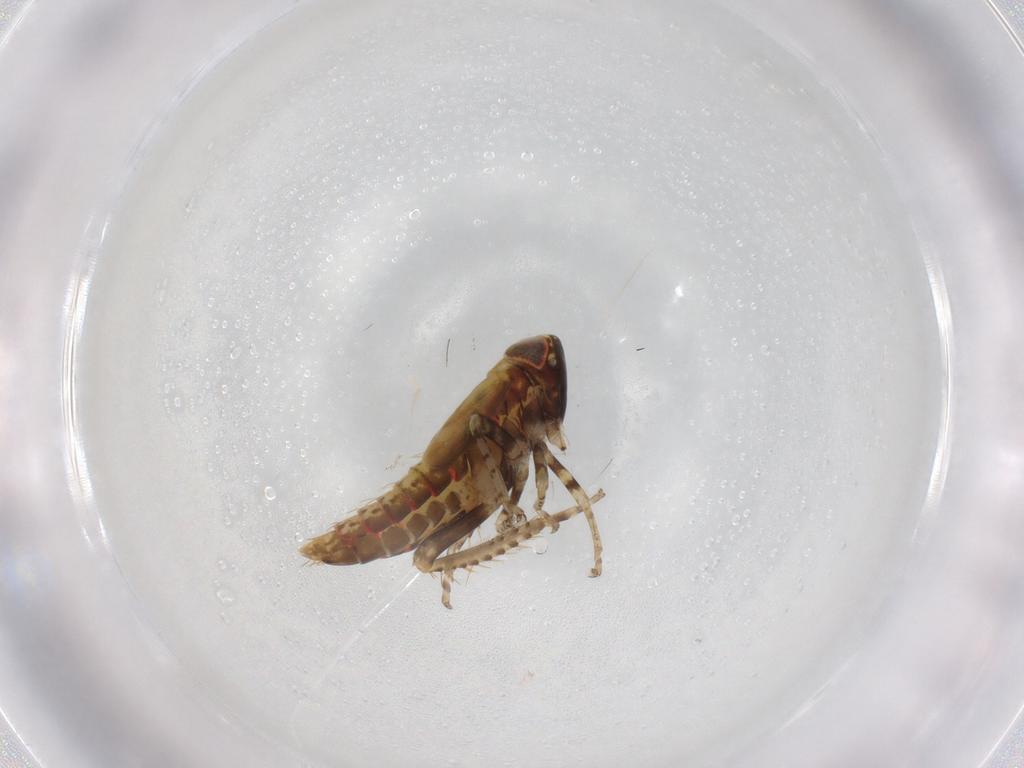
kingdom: Animalia
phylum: Arthropoda
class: Insecta
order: Hemiptera
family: Cicadellidae
